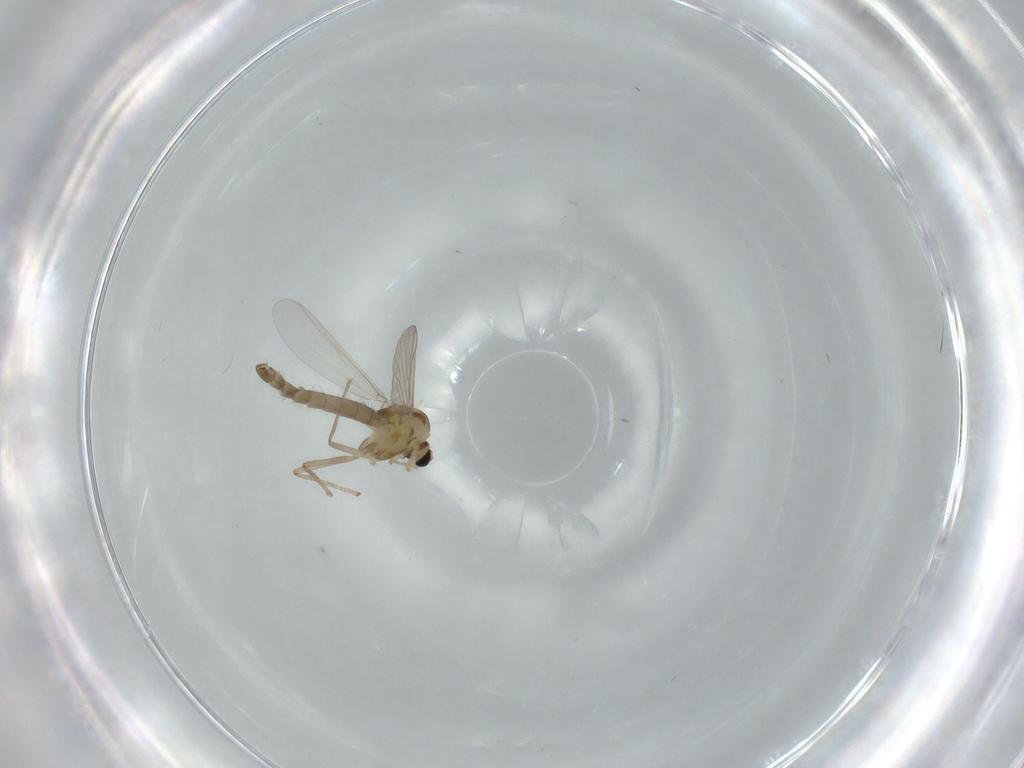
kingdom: Animalia
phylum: Arthropoda
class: Insecta
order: Diptera
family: Chironomidae
